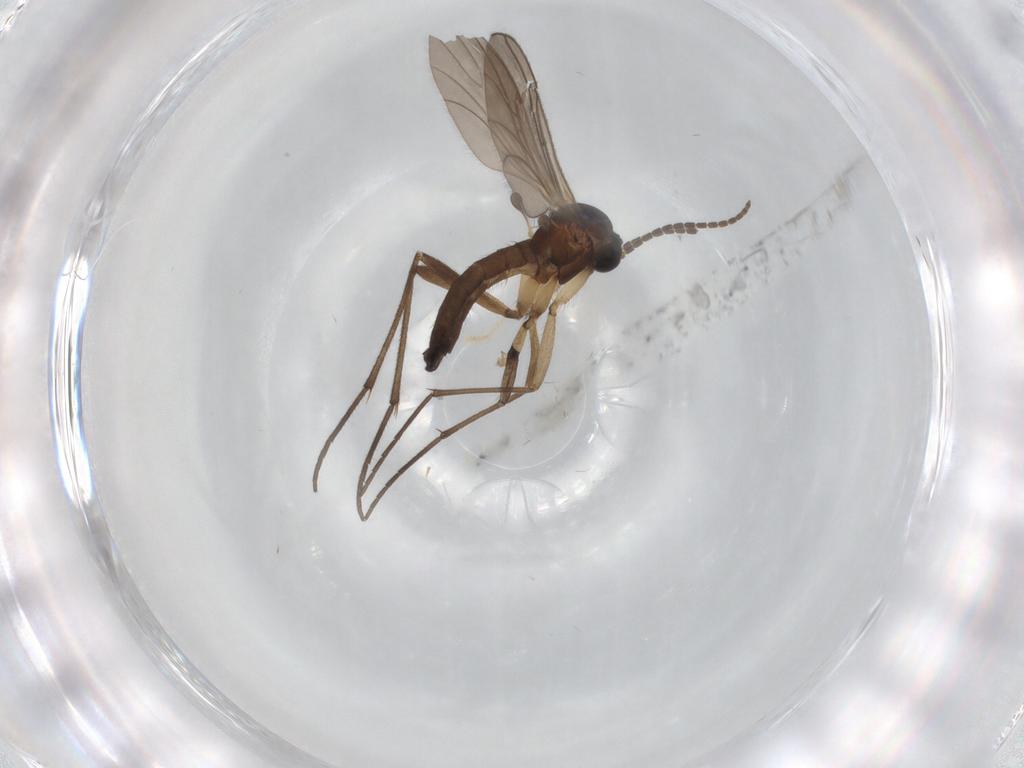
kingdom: Animalia
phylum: Arthropoda
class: Insecta
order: Diptera
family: Sciaridae
